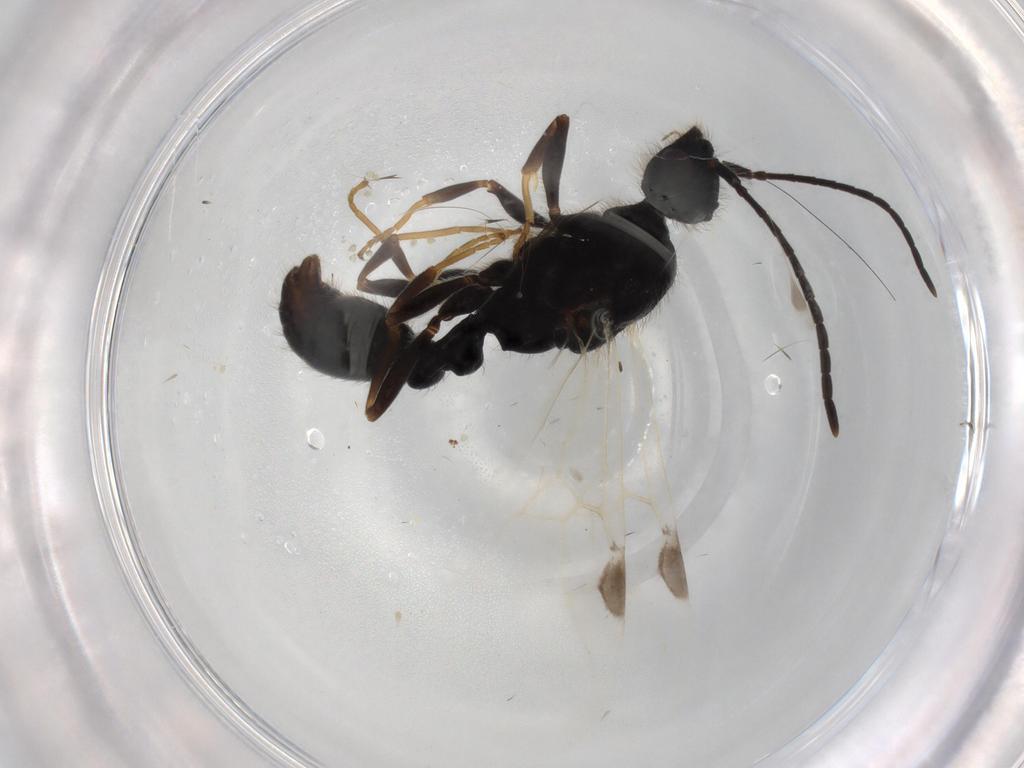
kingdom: Animalia
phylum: Arthropoda
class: Insecta
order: Hymenoptera
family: Formicidae
